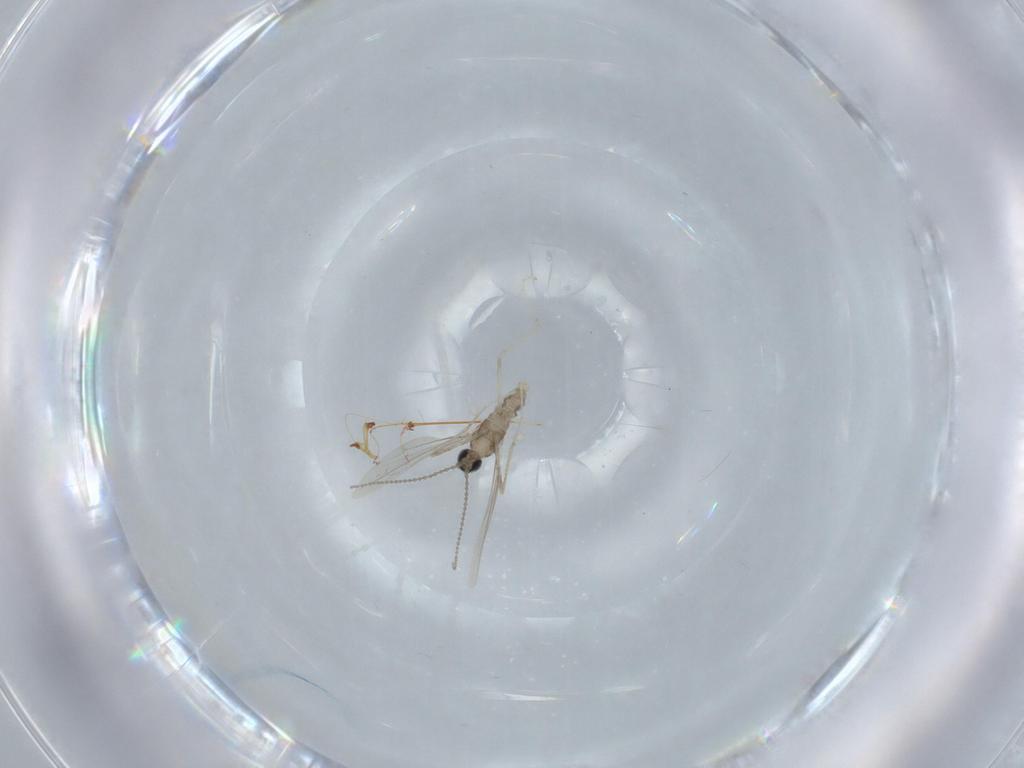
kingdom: Animalia
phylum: Arthropoda
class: Insecta
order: Diptera
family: Cecidomyiidae
